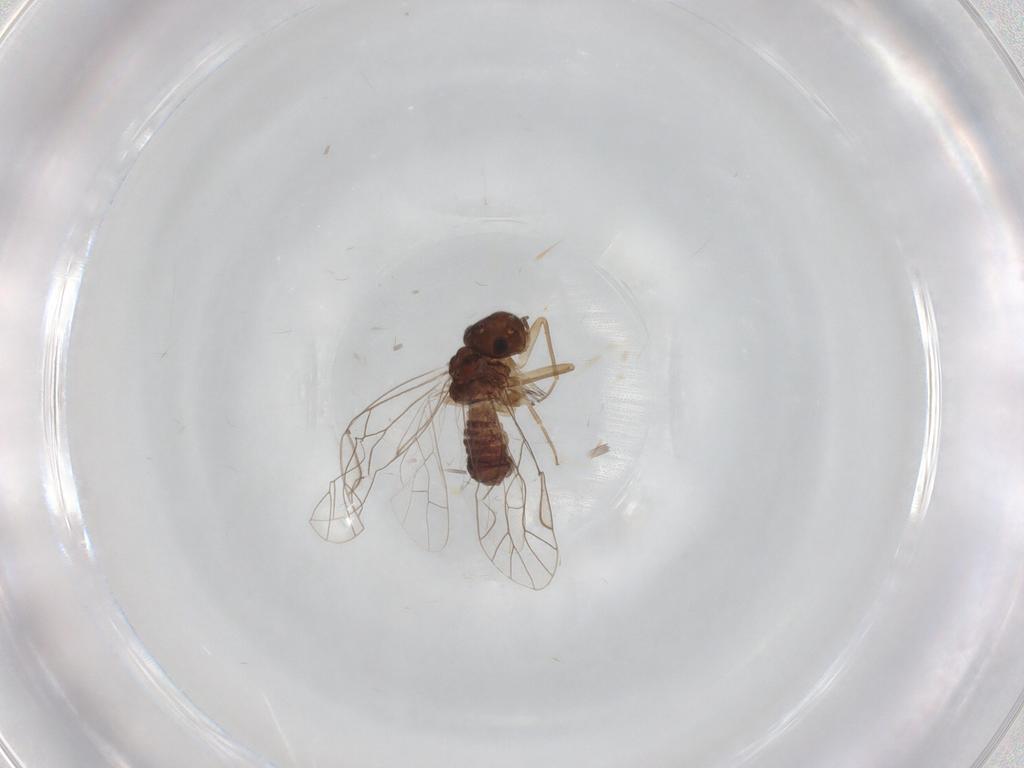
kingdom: Animalia
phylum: Arthropoda
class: Insecta
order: Psocodea
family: Lachesillidae
